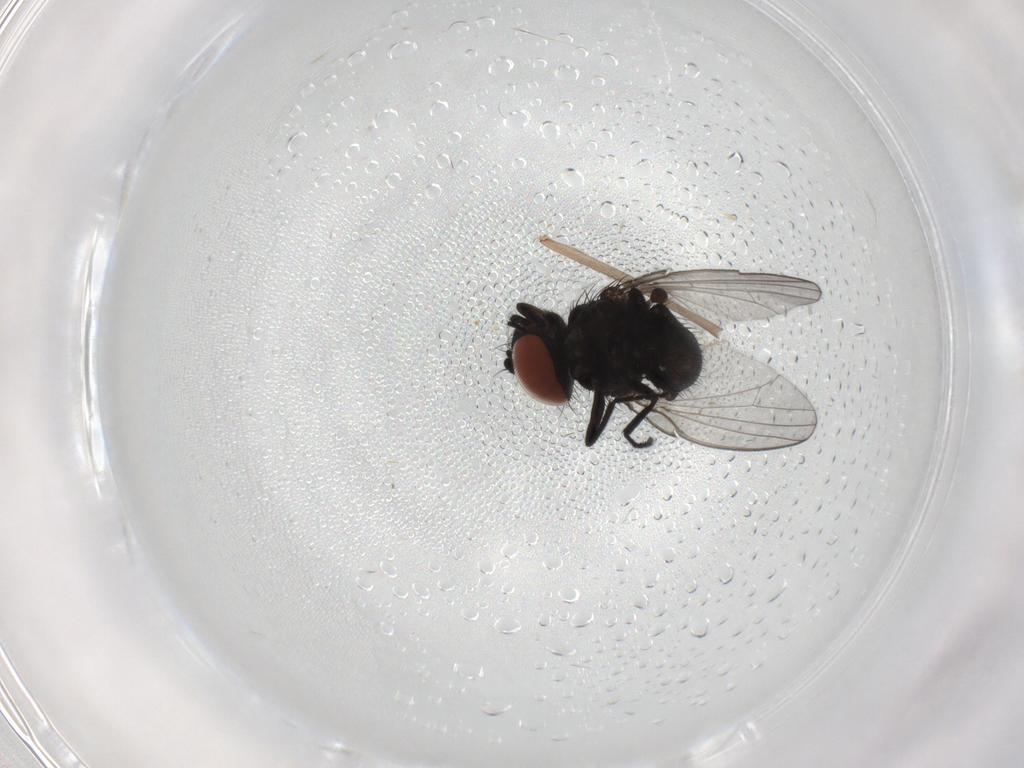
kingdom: Animalia
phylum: Arthropoda
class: Insecta
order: Diptera
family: Milichiidae
